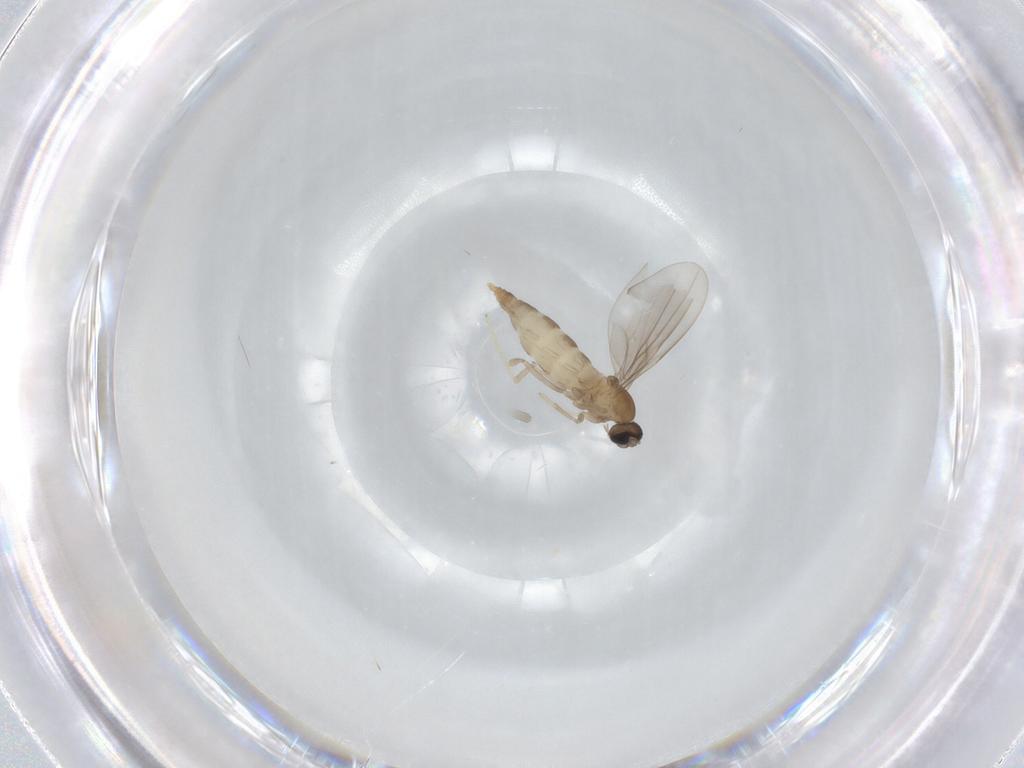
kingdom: Animalia
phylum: Arthropoda
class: Insecta
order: Diptera
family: Cecidomyiidae
